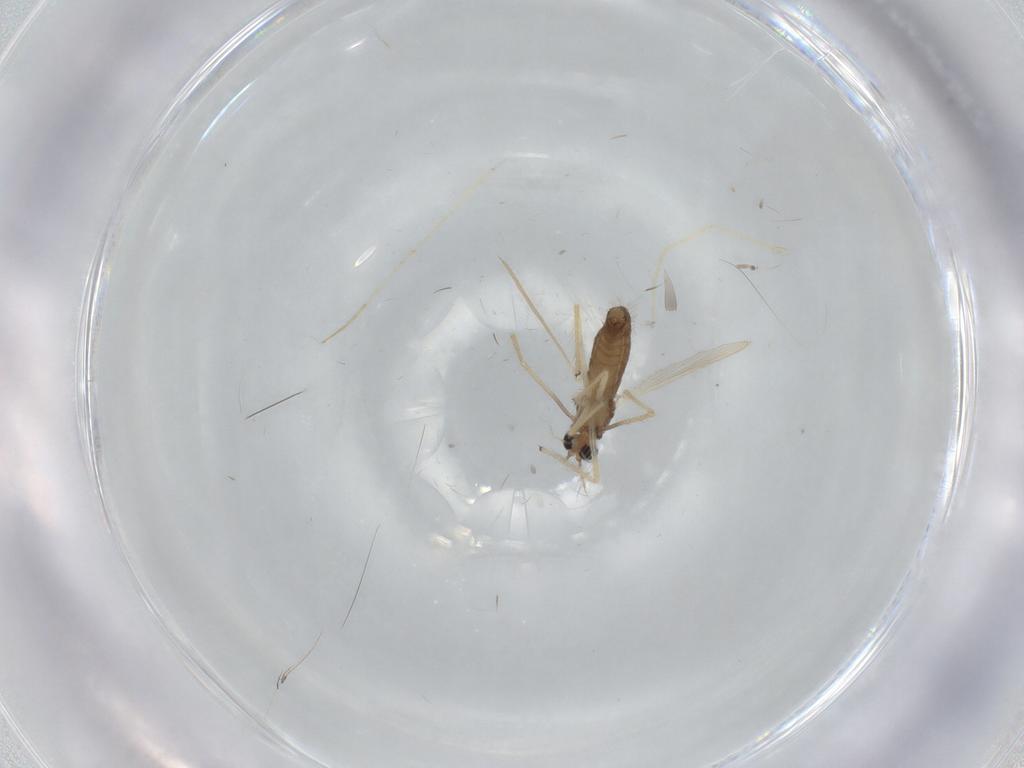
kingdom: Animalia
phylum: Arthropoda
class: Insecta
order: Diptera
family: Chironomidae
